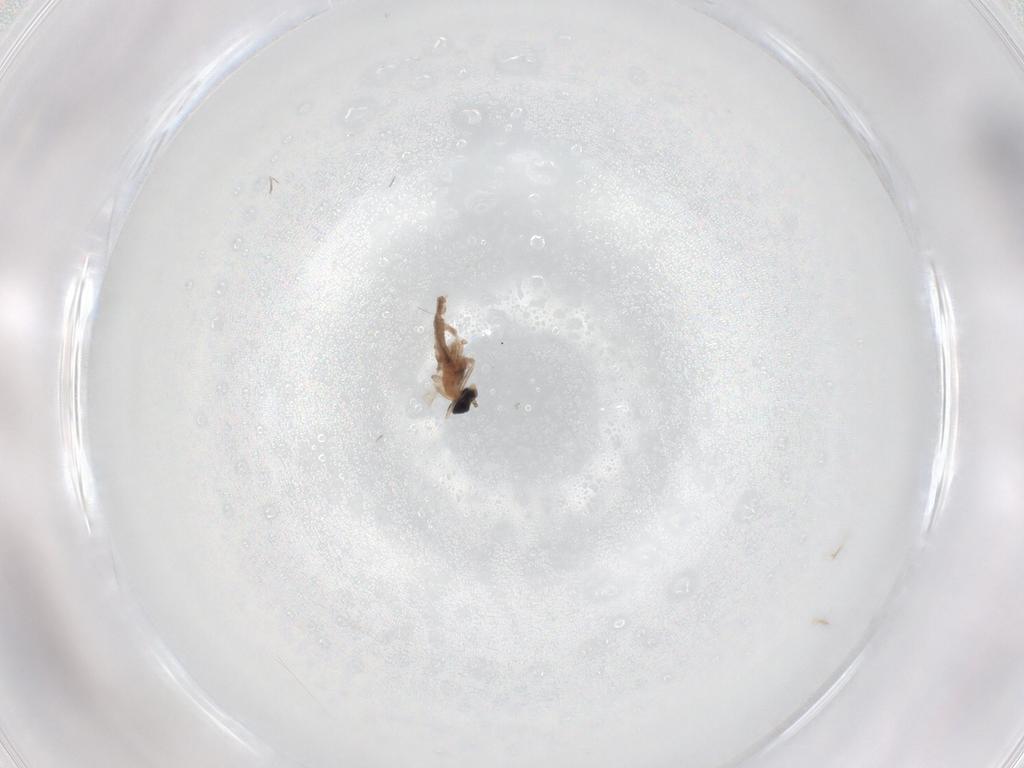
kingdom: Animalia
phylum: Arthropoda
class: Insecta
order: Diptera
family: Cecidomyiidae
